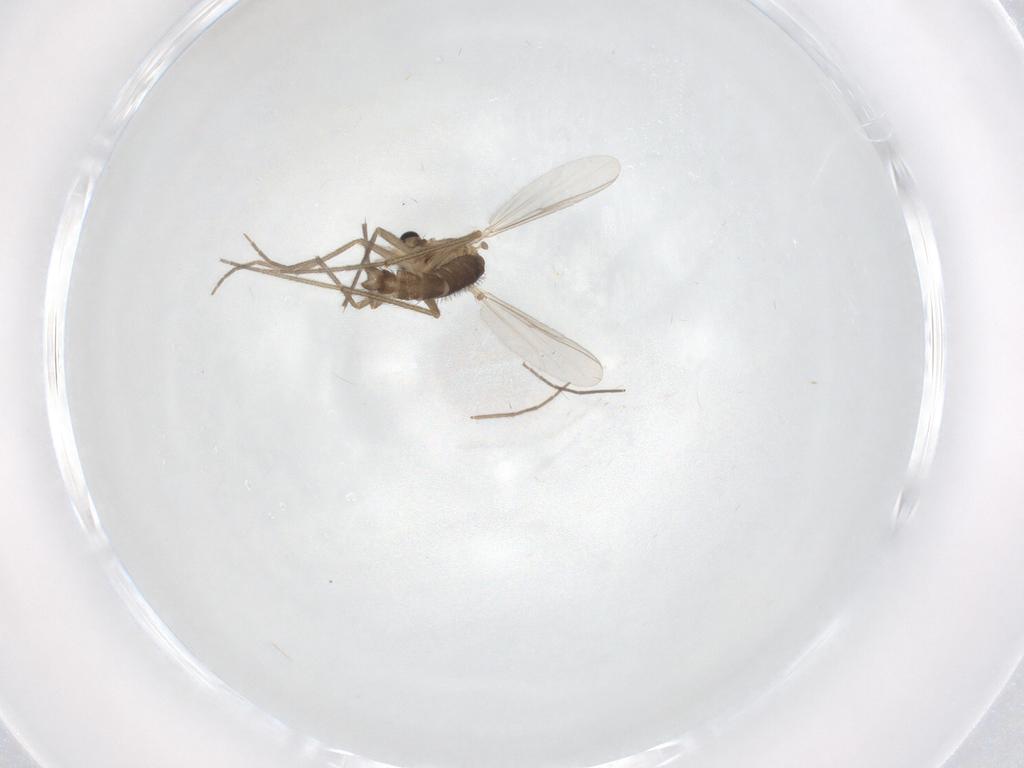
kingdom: Animalia
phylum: Arthropoda
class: Insecta
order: Diptera
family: Chironomidae
